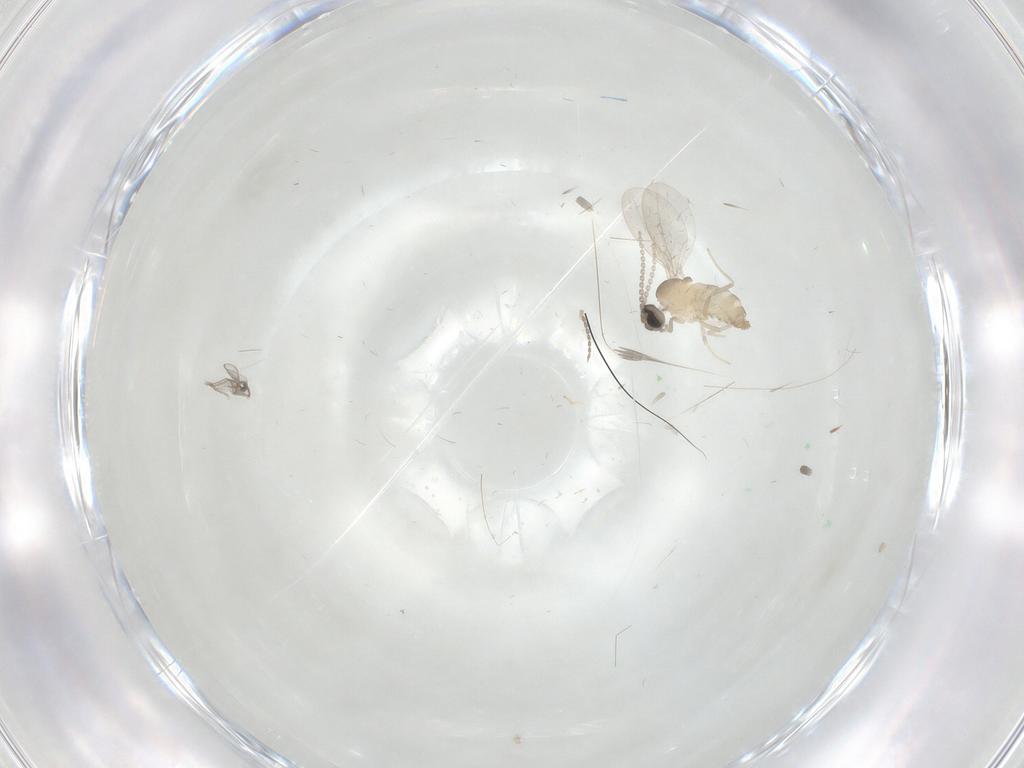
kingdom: Animalia
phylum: Arthropoda
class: Insecta
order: Diptera
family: Cecidomyiidae
